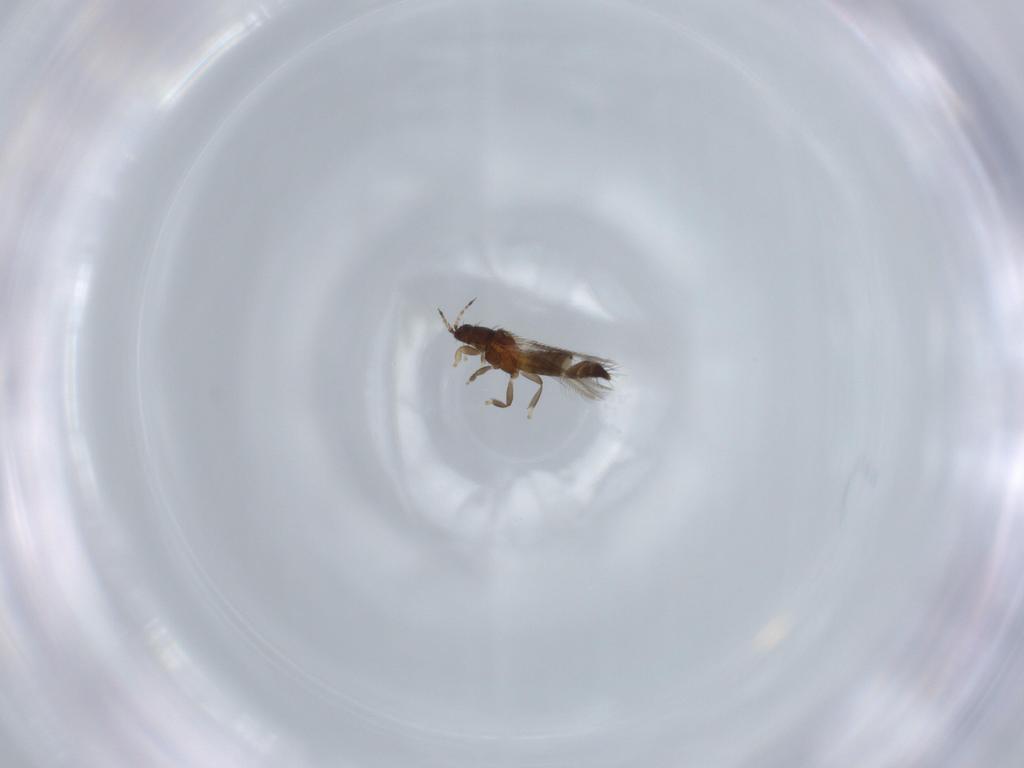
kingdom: Animalia
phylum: Arthropoda
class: Insecta
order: Thysanoptera
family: Thripidae
